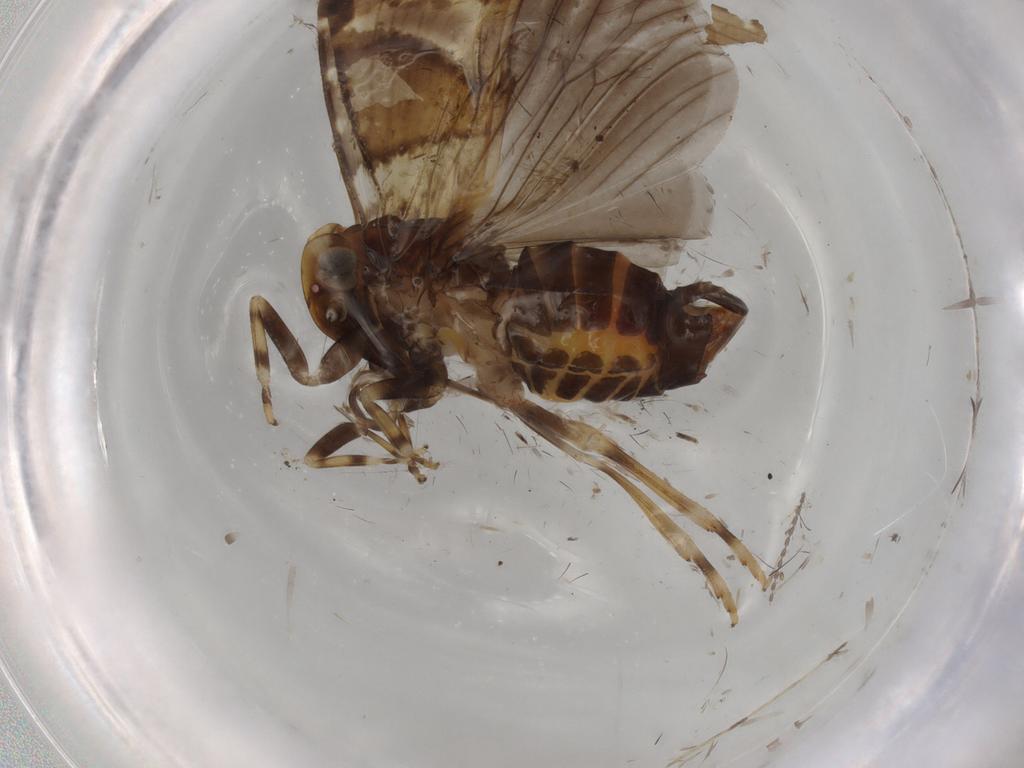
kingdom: Animalia
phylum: Arthropoda
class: Insecta
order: Hemiptera
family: Cixiidae
